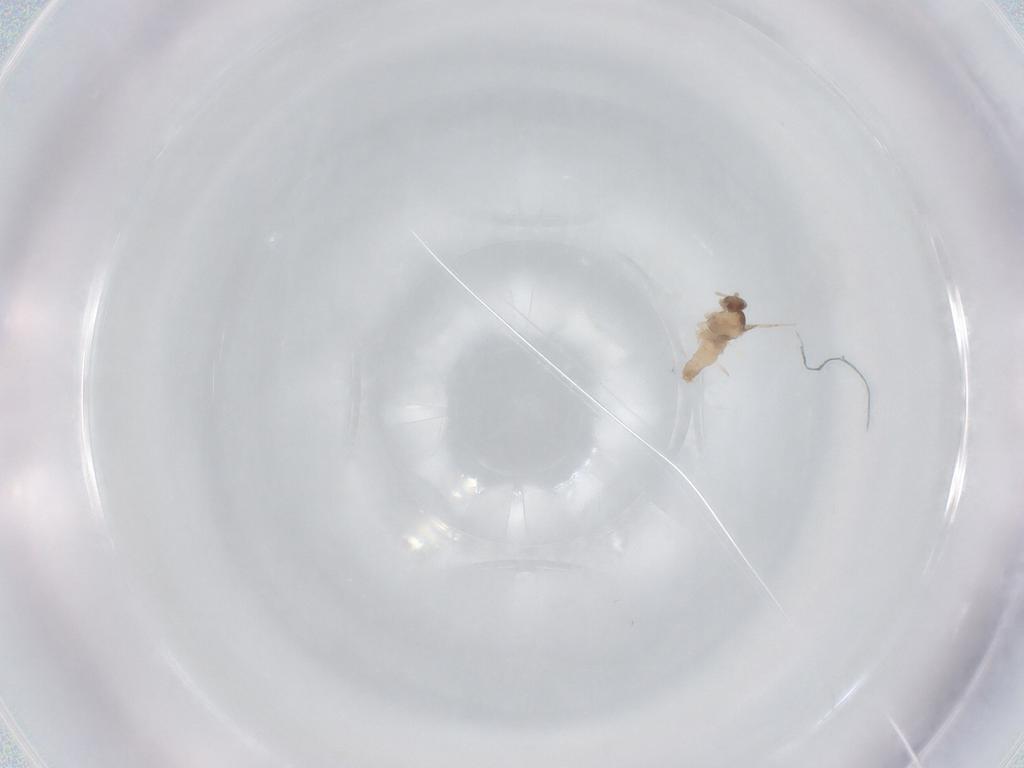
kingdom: Animalia
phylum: Arthropoda
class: Insecta
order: Diptera
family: Cecidomyiidae
